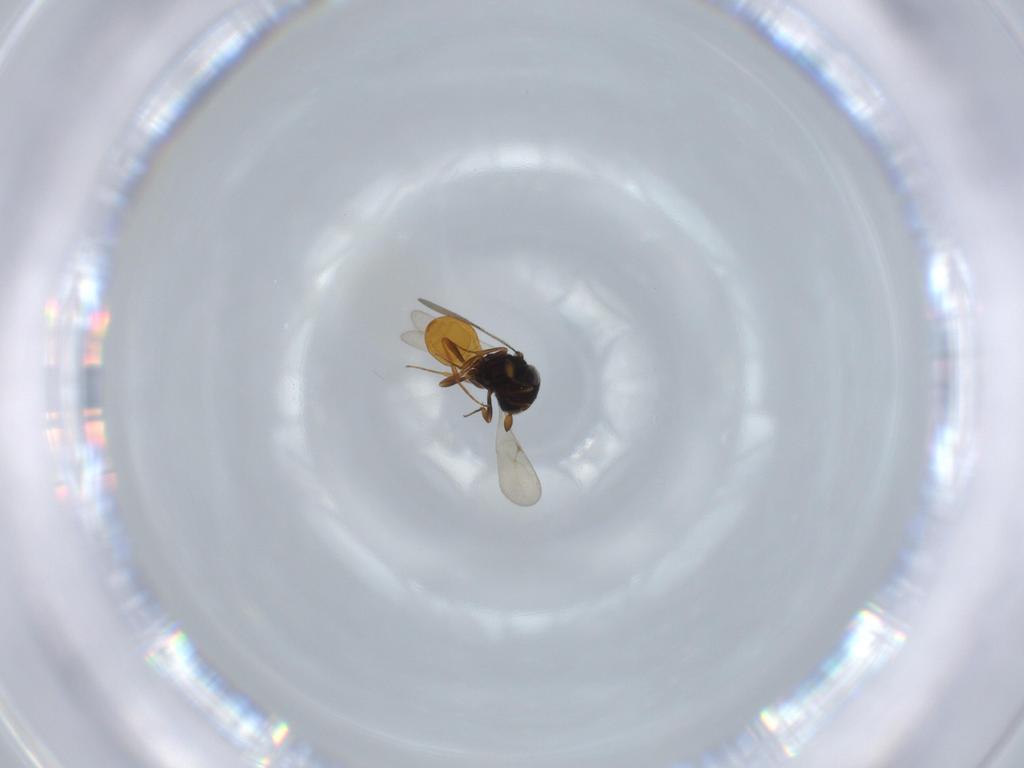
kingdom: Animalia
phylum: Arthropoda
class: Insecta
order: Hymenoptera
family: Scelionidae
